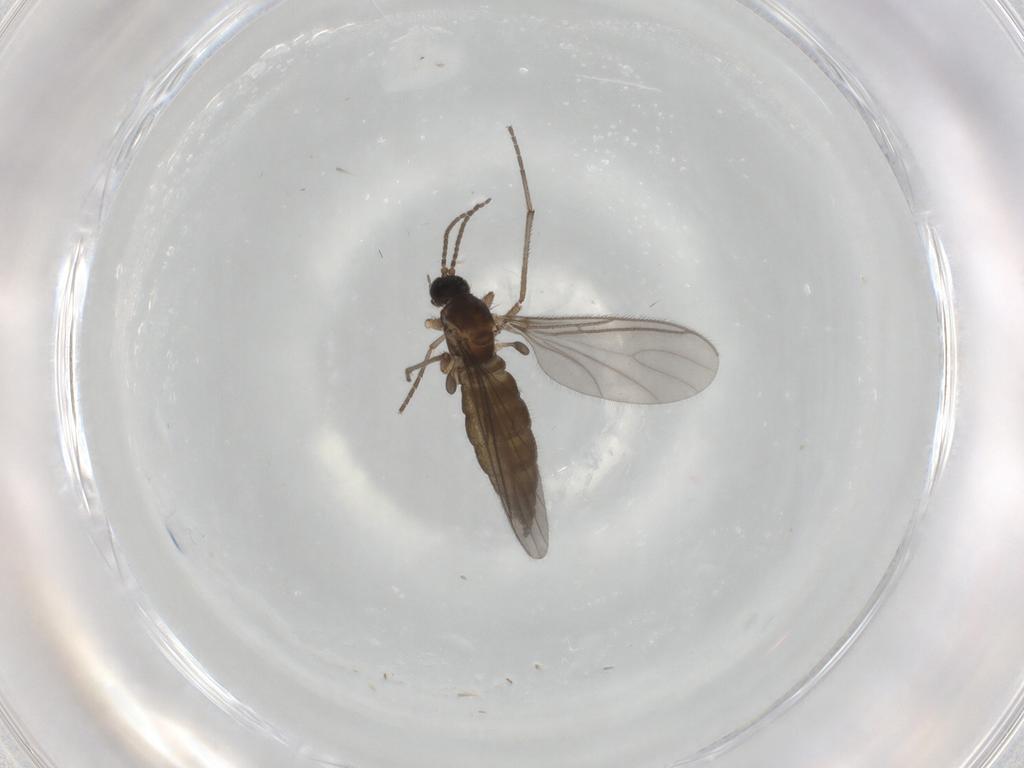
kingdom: Animalia
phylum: Arthropoda
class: Insecta
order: Diptera
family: Sciaridae
